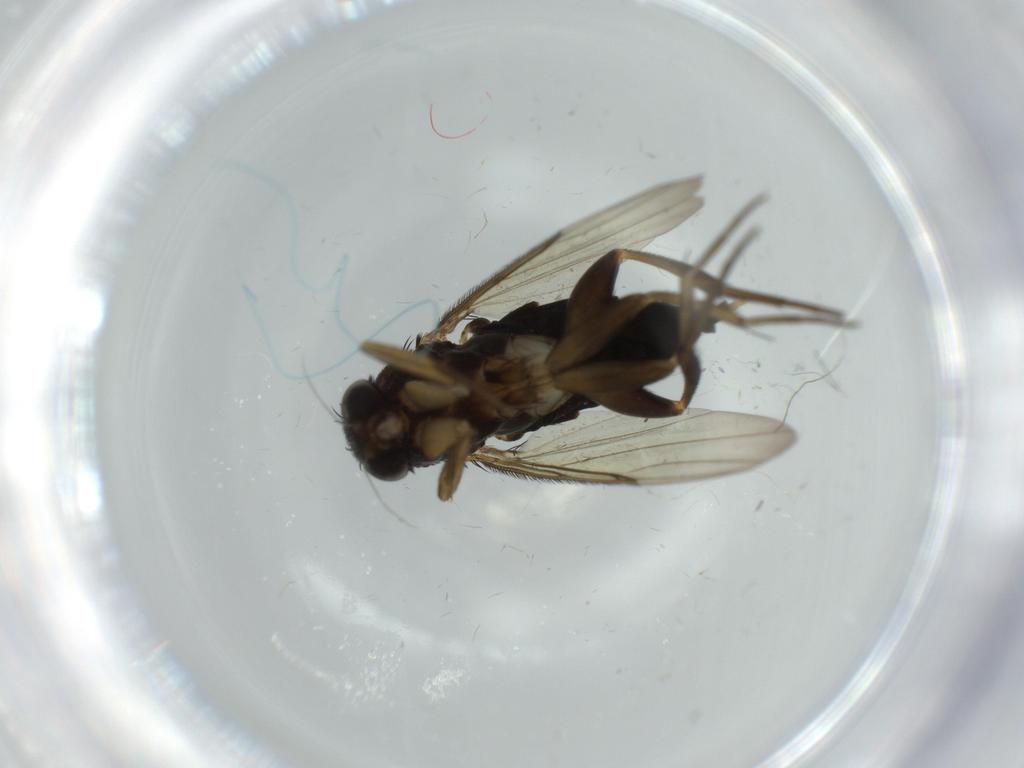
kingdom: Animalia
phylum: Arthropoda
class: Insecta
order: Diptera
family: Phoridae
